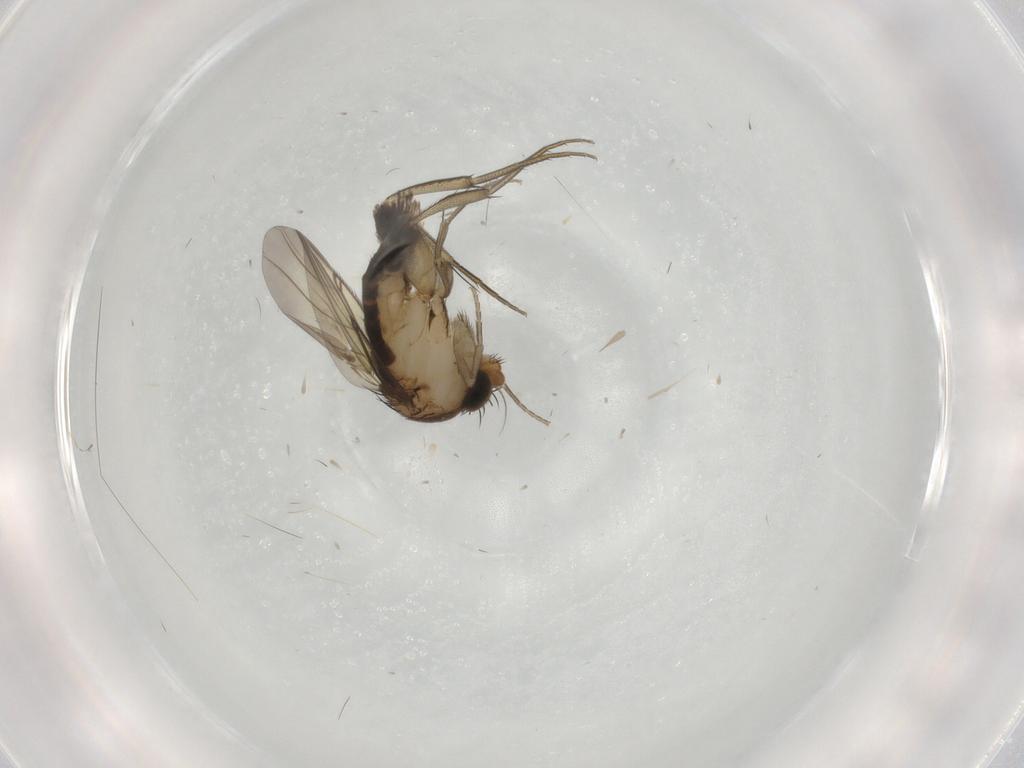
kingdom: Animalia
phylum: Arthropoda
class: Insecta
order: Diptera
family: Phoridae
